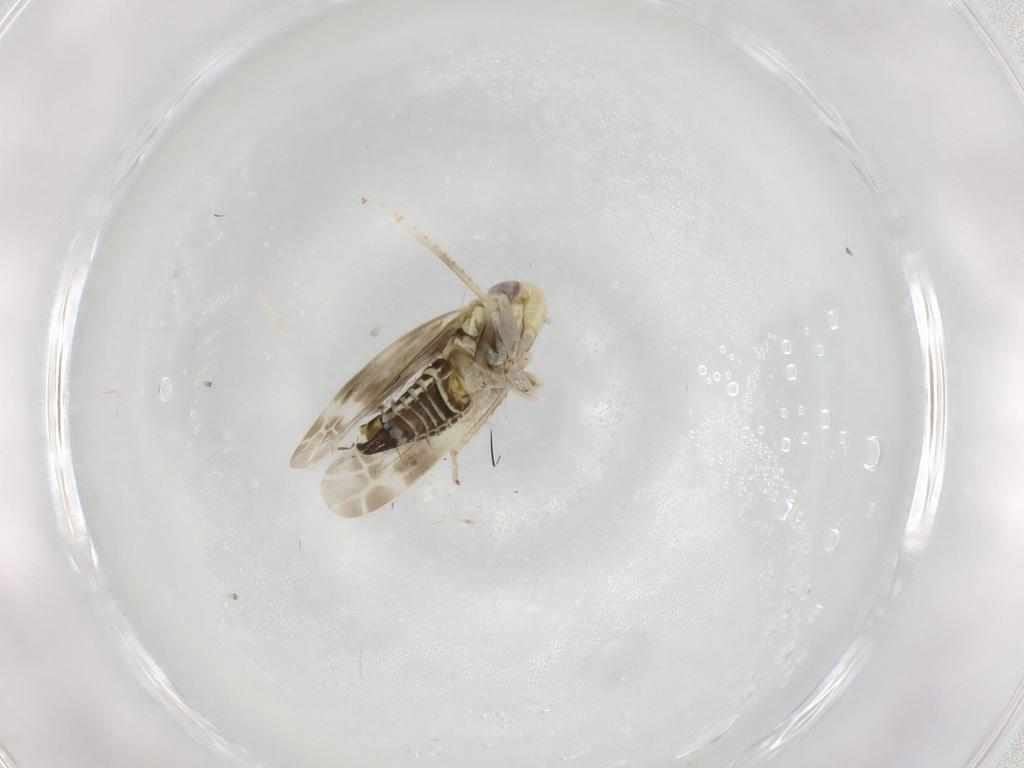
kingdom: Animalia
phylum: Arthropoda
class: Insecta
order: Hemiptera
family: Cicadellidae
